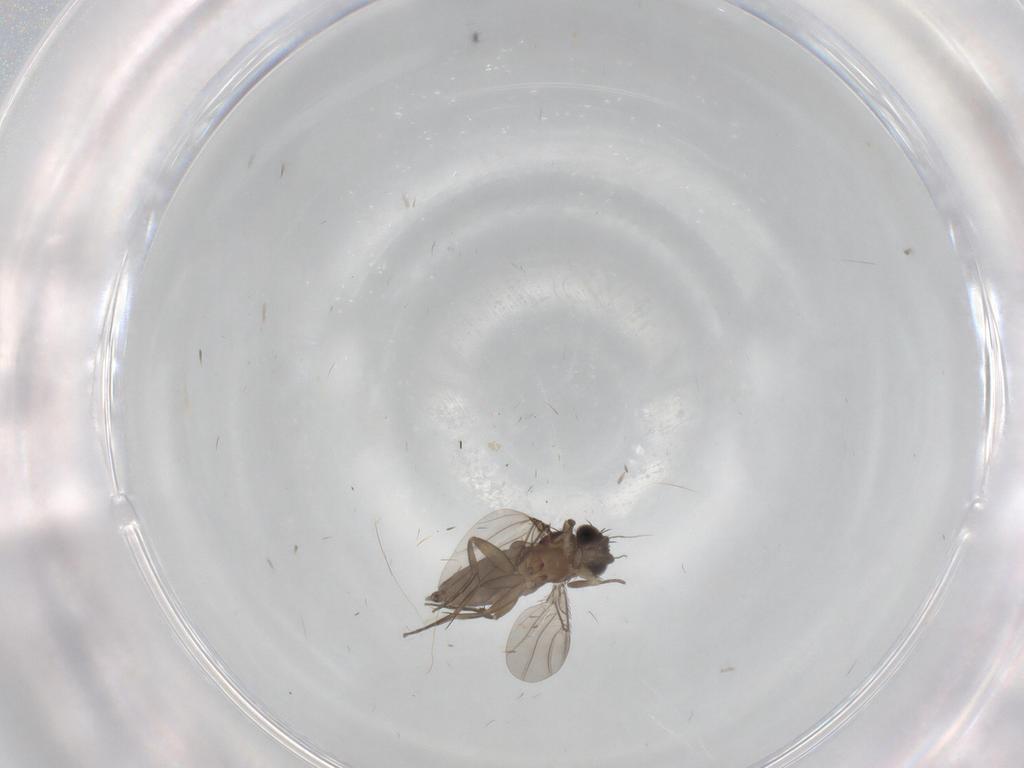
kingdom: Animalia
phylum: Arthropoda
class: Insecta
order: Diptera
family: Phoridae
